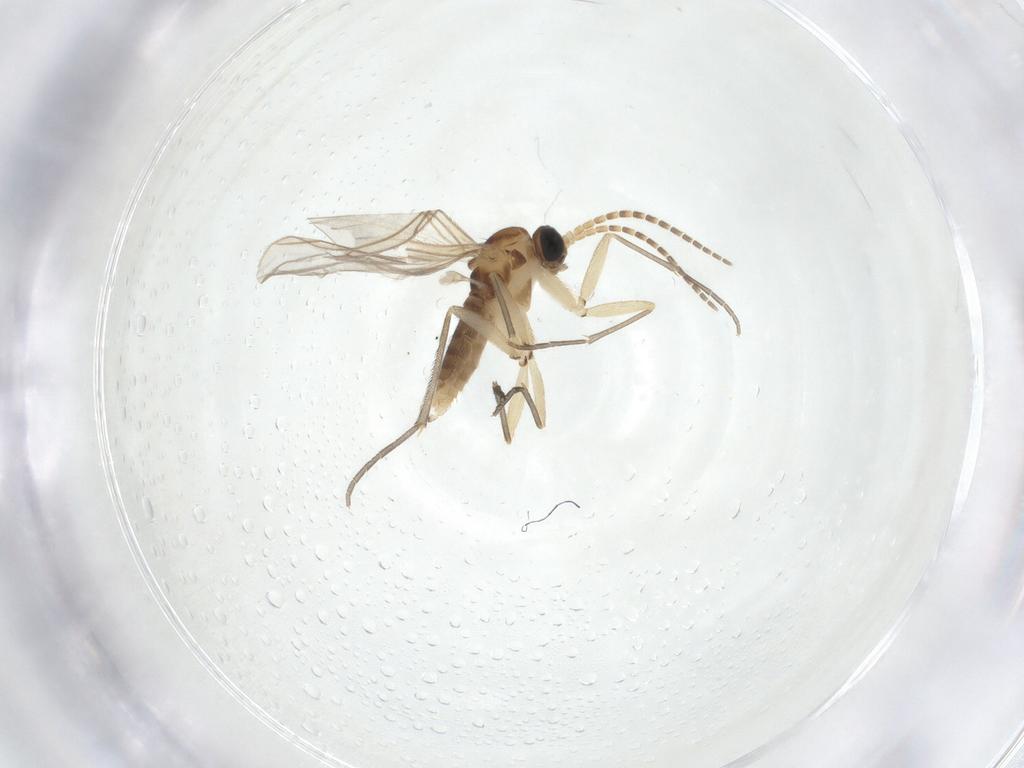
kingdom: Animalia
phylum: Arthropoda
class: Insecta
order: Diptera
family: Sciaridae
